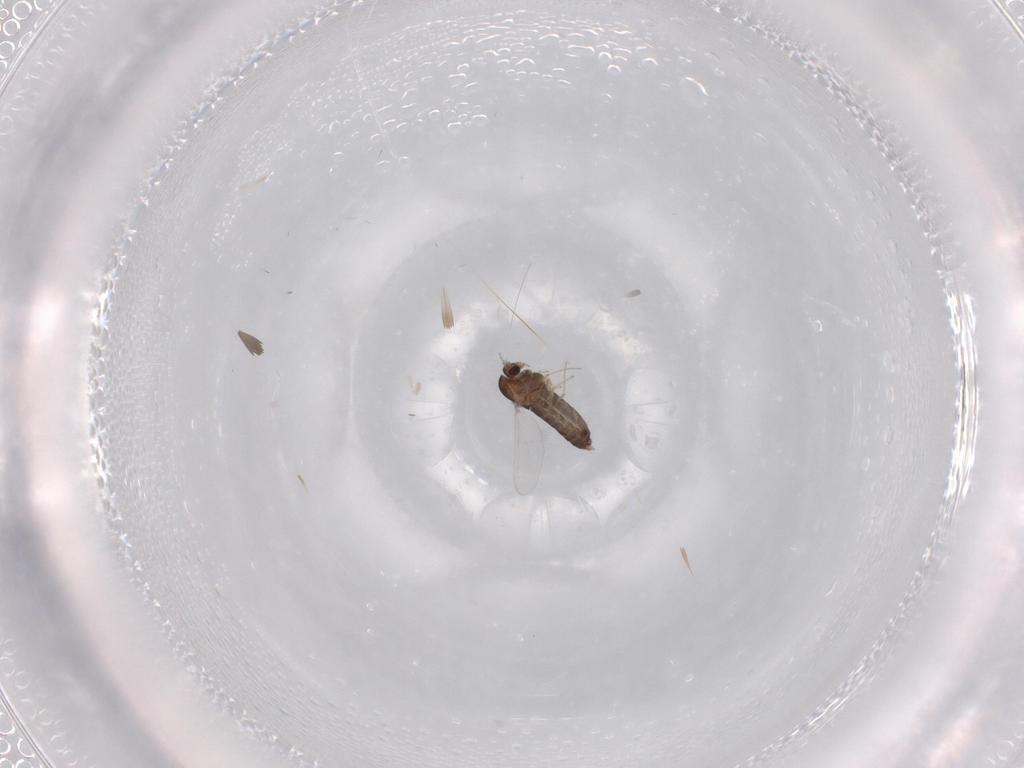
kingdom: Animalia
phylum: Arthropoda
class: Insecta
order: Diptera
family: Chironomidae
